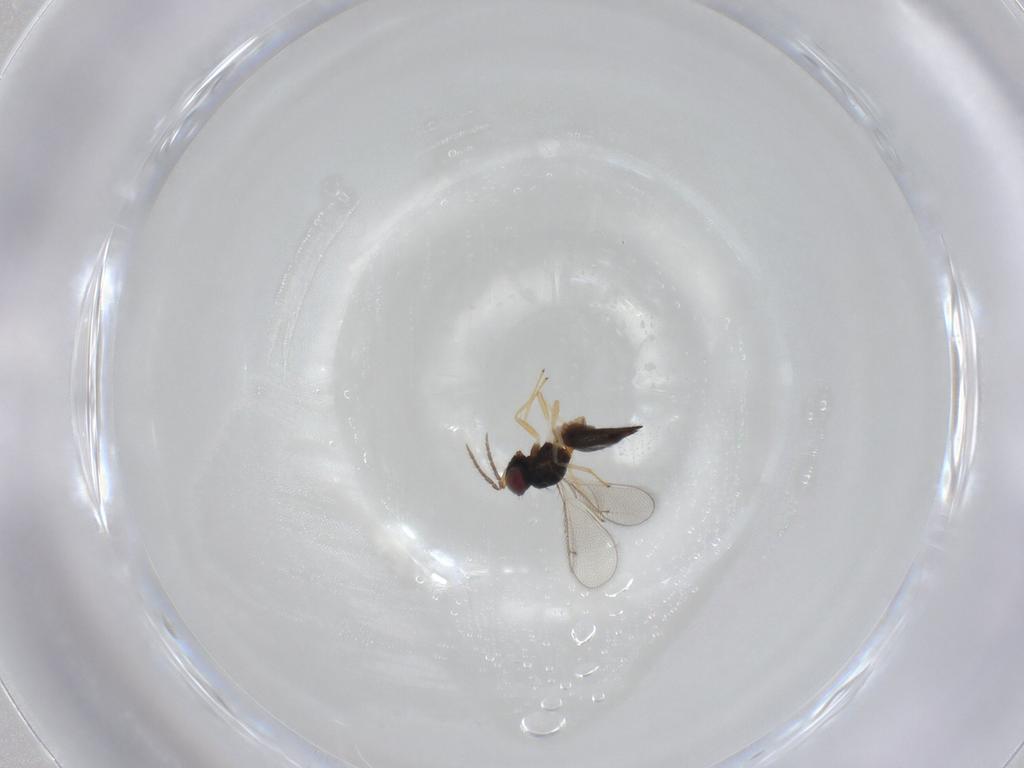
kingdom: Animalia
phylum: Arthropoda
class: Insecta
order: Hymenoptera
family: Eulophidae
